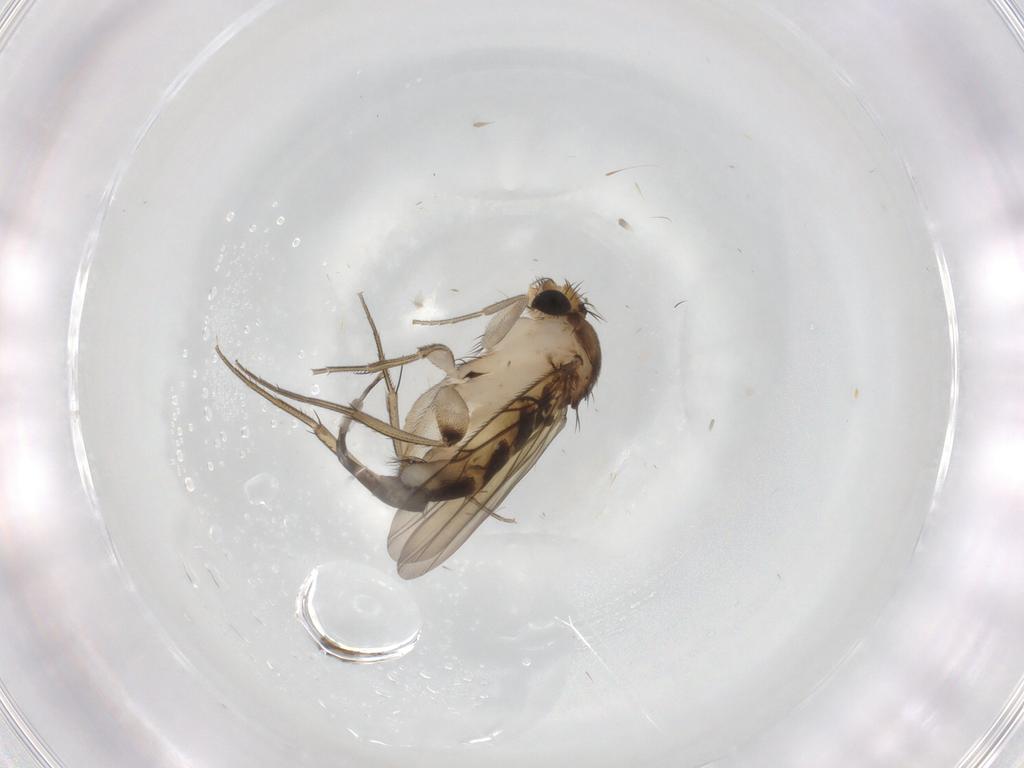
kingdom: Animalia
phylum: Arthropoda
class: Insecta
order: Diptera
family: Phoridae
